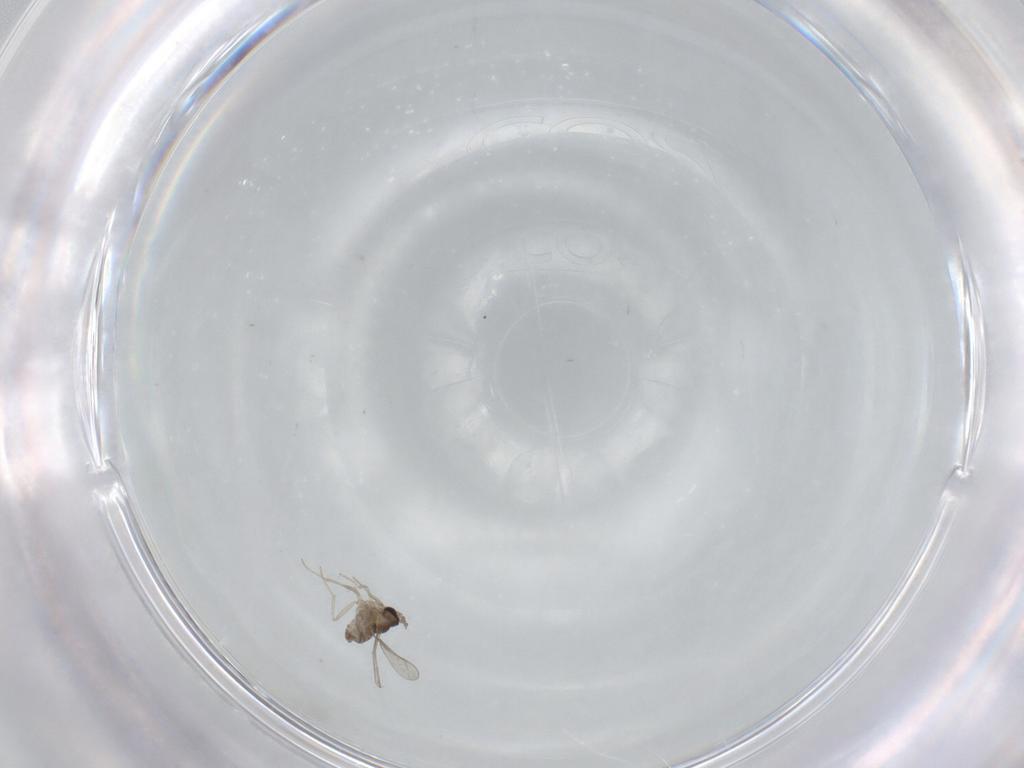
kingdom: Animalia
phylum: Arthropoda
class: Insecta
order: Diptera
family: Cecidomyiidae
